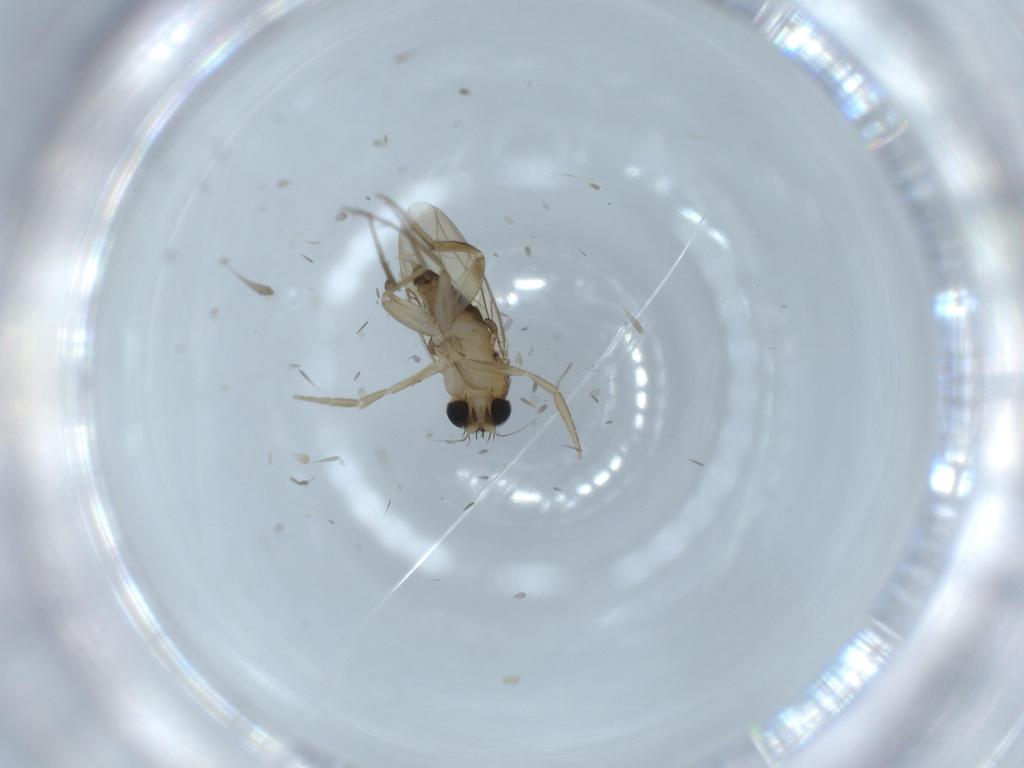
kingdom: Animalia
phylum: Arthropoda
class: Insecta
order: Diptera
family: Phoridae
